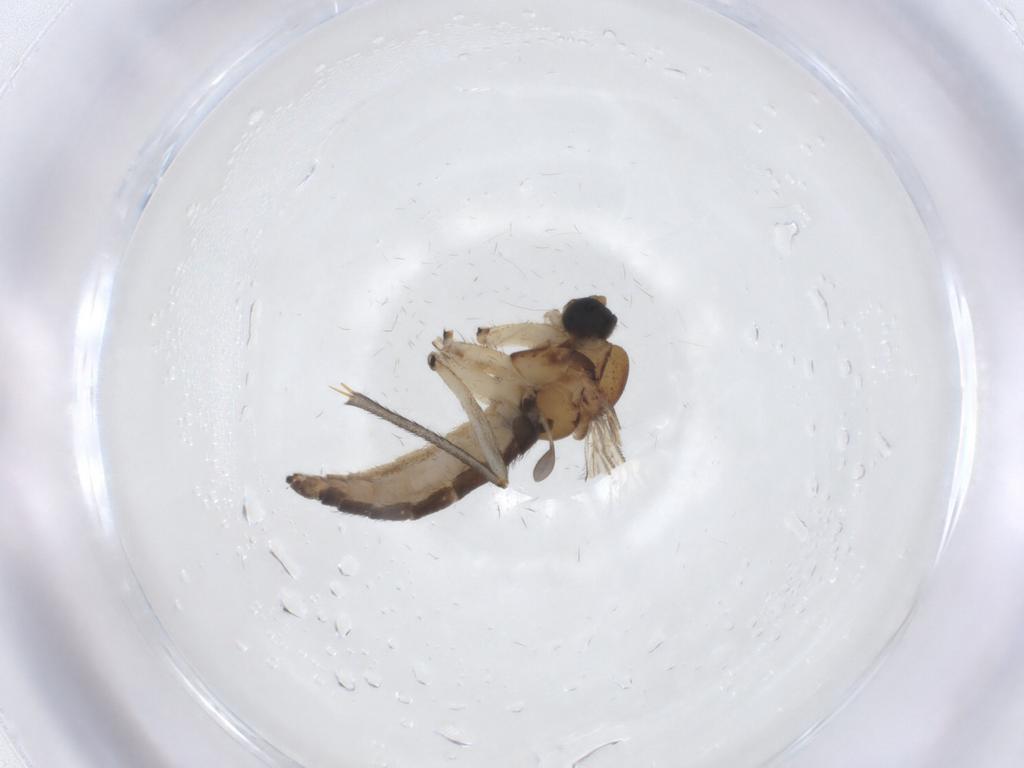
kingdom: Animalia
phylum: Arthropoda
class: Insecta
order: Diptera
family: Sciaridae
